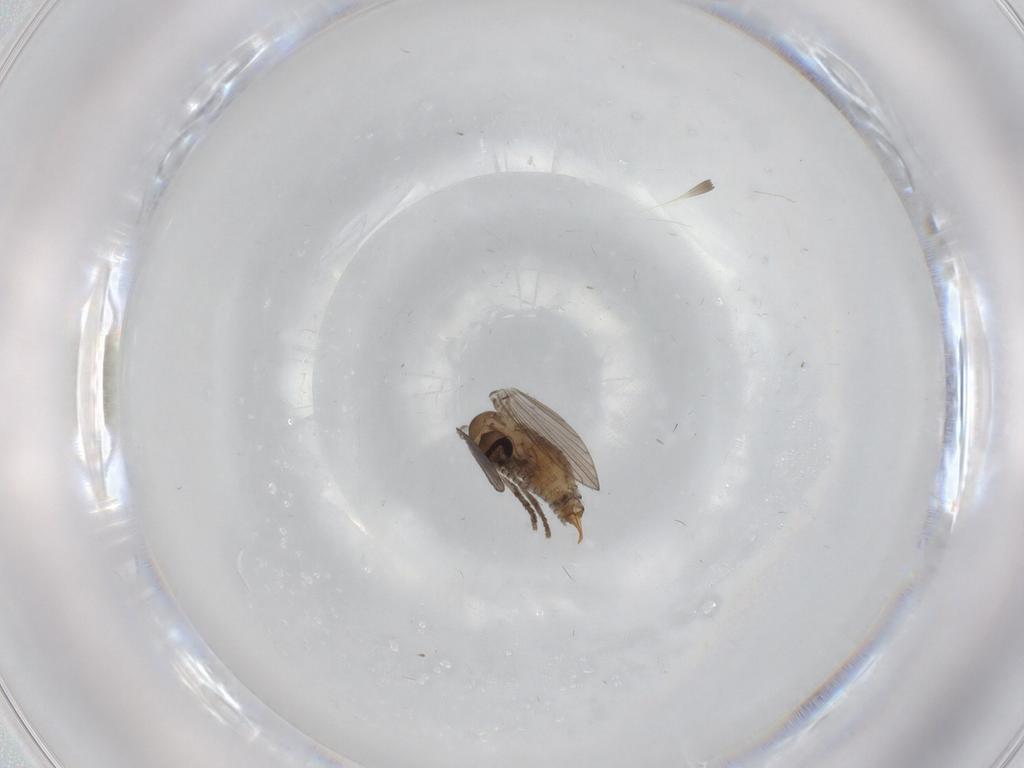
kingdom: Animalia
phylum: Arthropoda
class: Insecta
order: Diptera
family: Psychodidae
